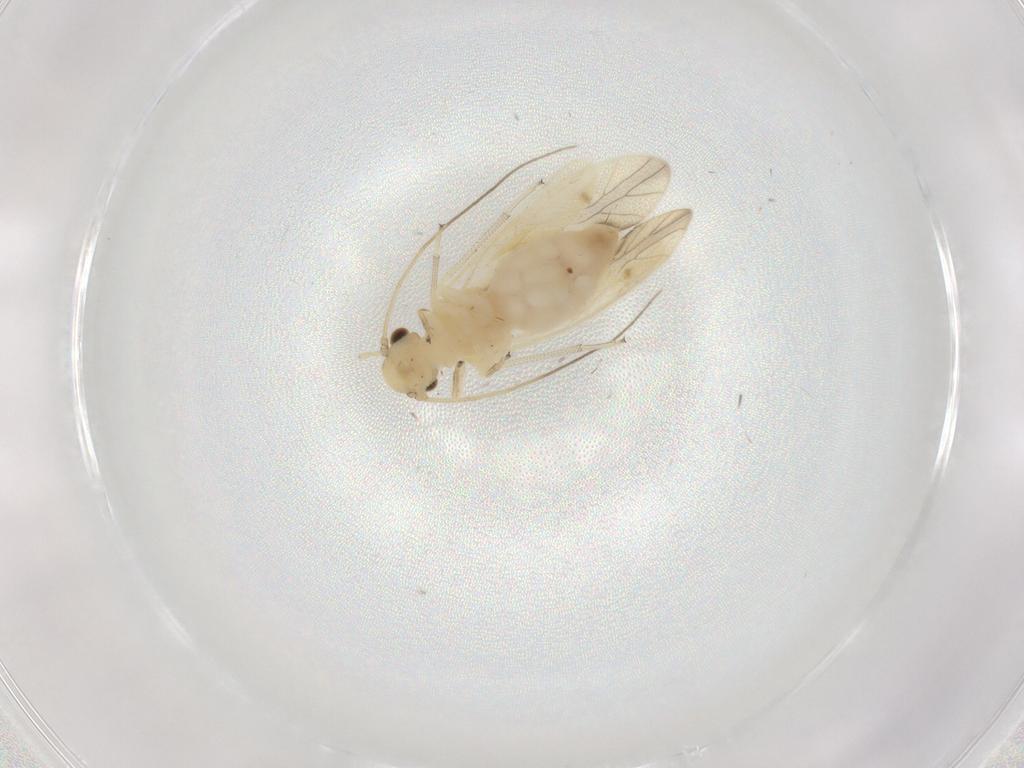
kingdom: Animalia
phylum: Arthropoda
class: Insecta
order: Psocodea
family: Caeciliusidae
